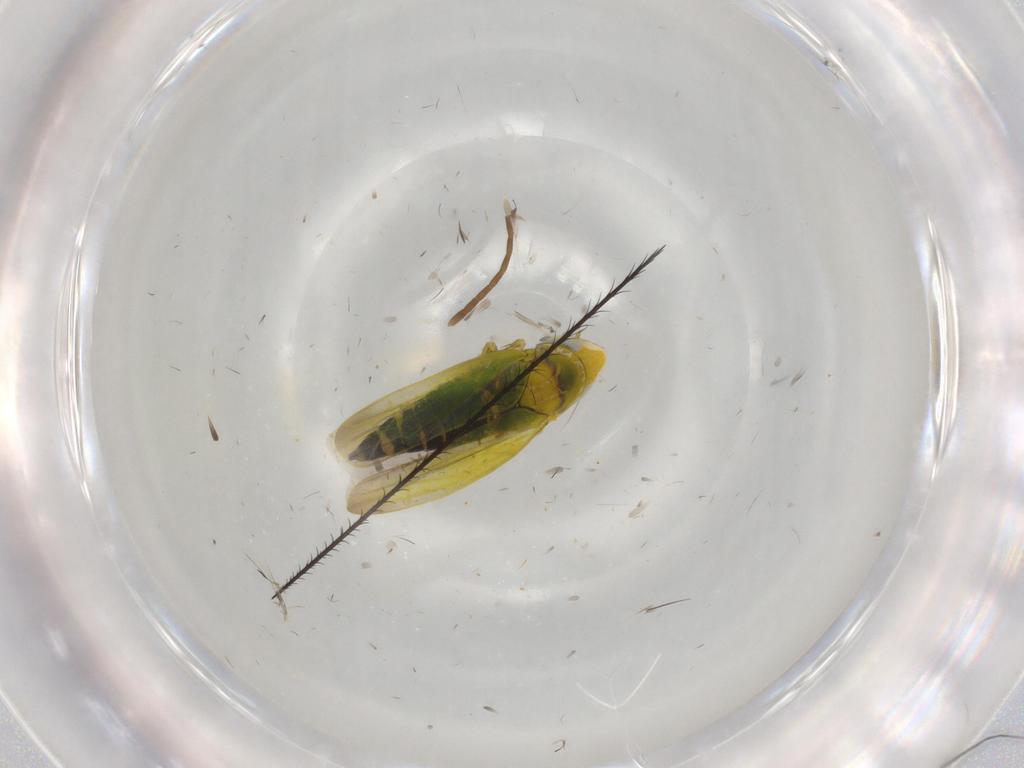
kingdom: Animalia
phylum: Arthropoda
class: Insecta
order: Hemiptera
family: Cicadellidae
